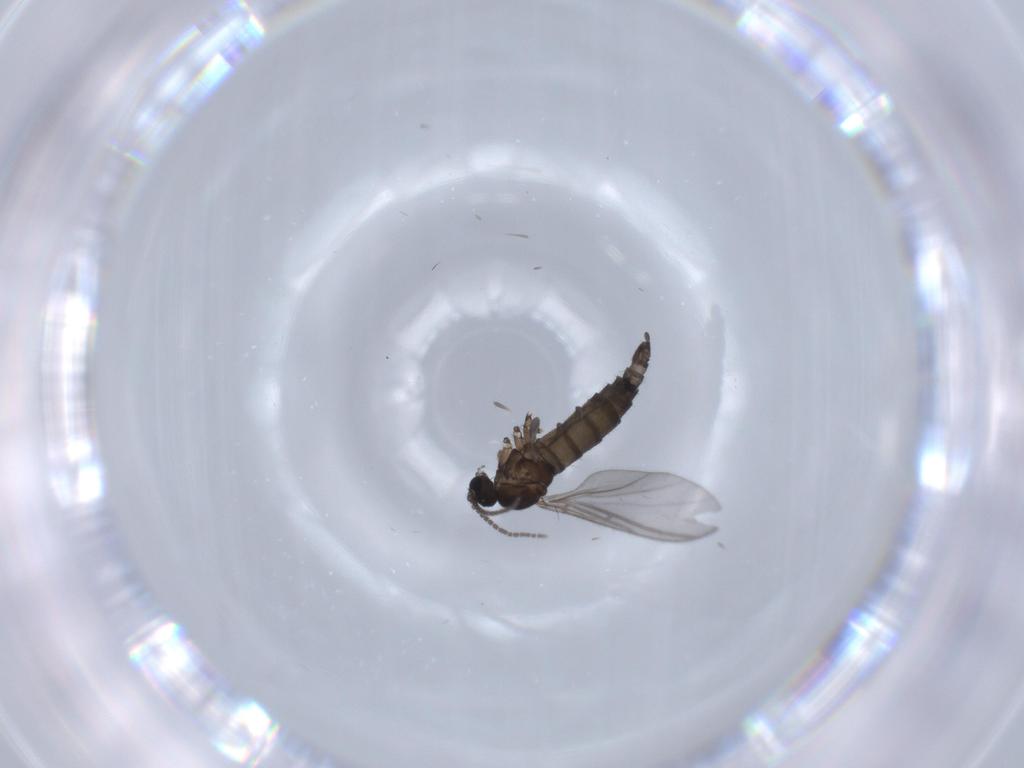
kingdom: Animalia
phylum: Arthropoda
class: Insecta
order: Diptera
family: Sciaridae
